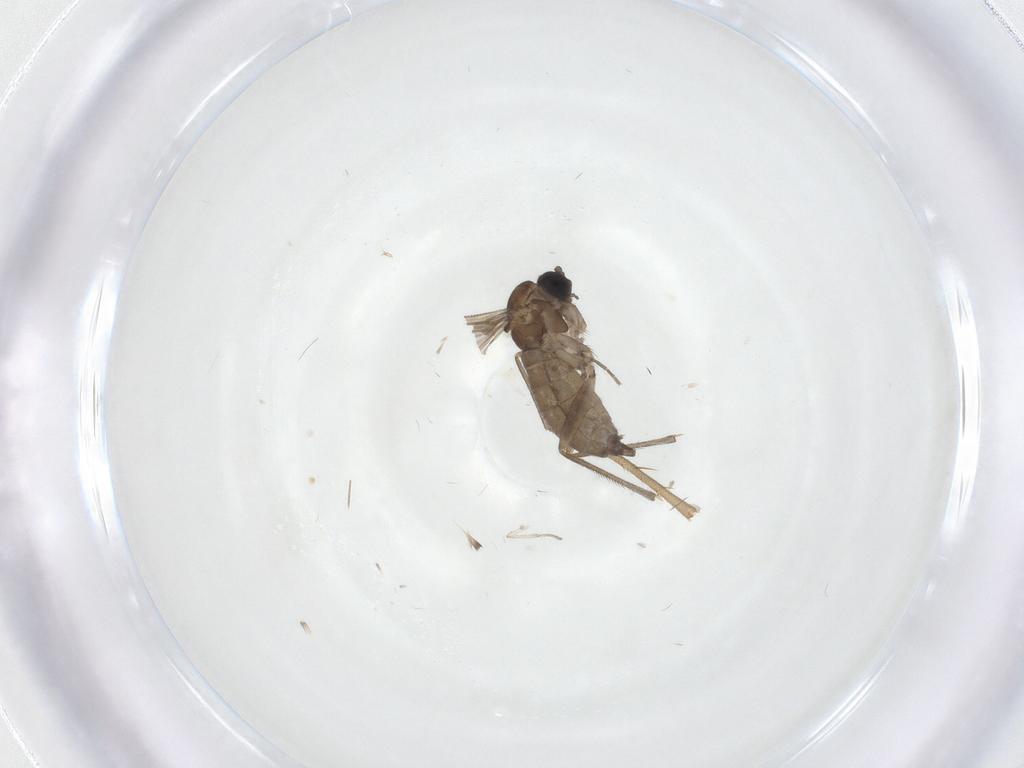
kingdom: Animalia
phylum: Arthropoda
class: Insecta
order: Diptera
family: Sciaridae
